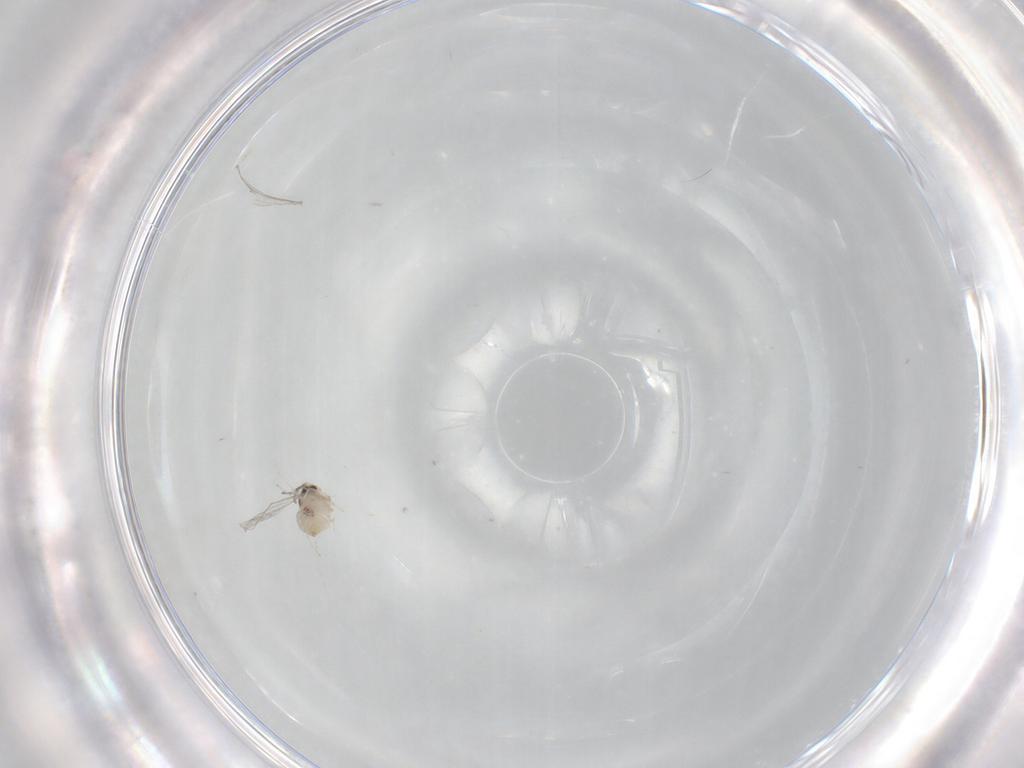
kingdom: Animalia
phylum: Arthropoda
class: Insecta
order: Diptera
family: Cecidomyiidae
